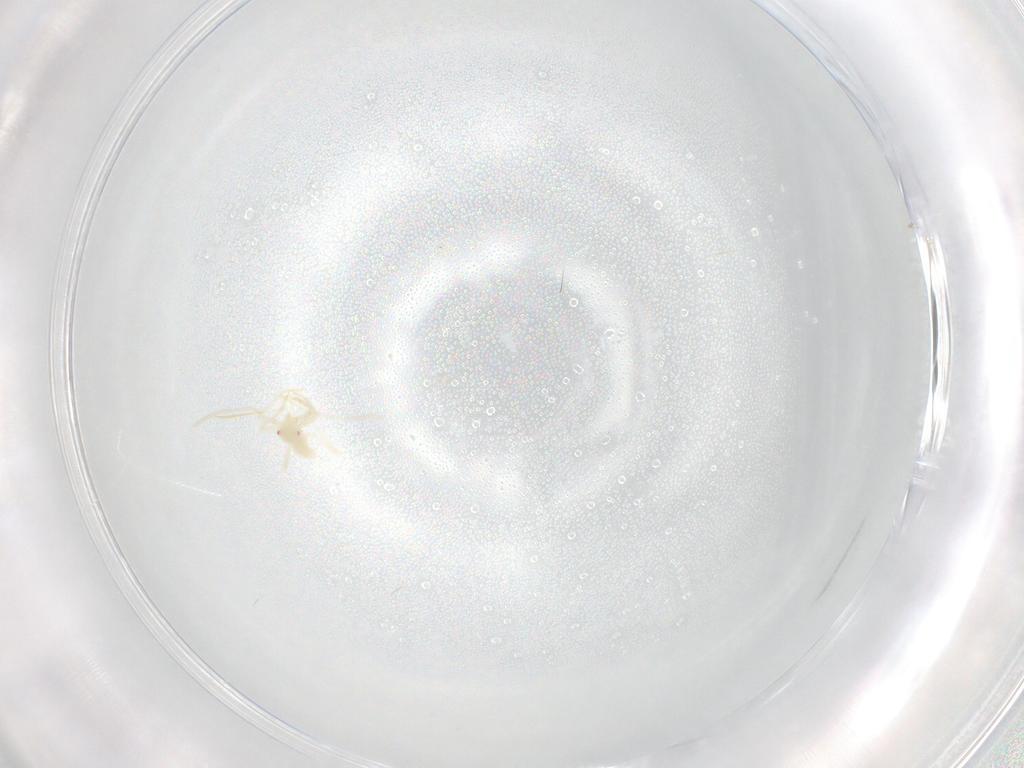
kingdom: Animalia
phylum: Arthropoda
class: Insecta
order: Hemiptera
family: Miridae
